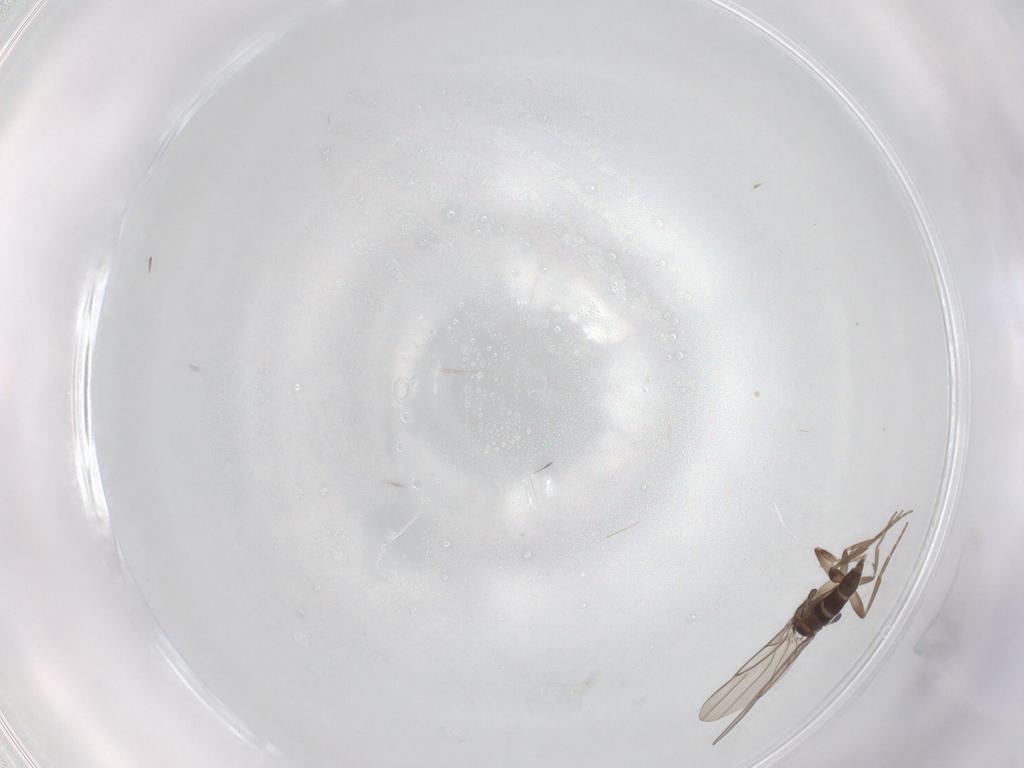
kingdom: Animalia
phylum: Arthropoda
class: Insecta
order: Diptera
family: Phoridae
